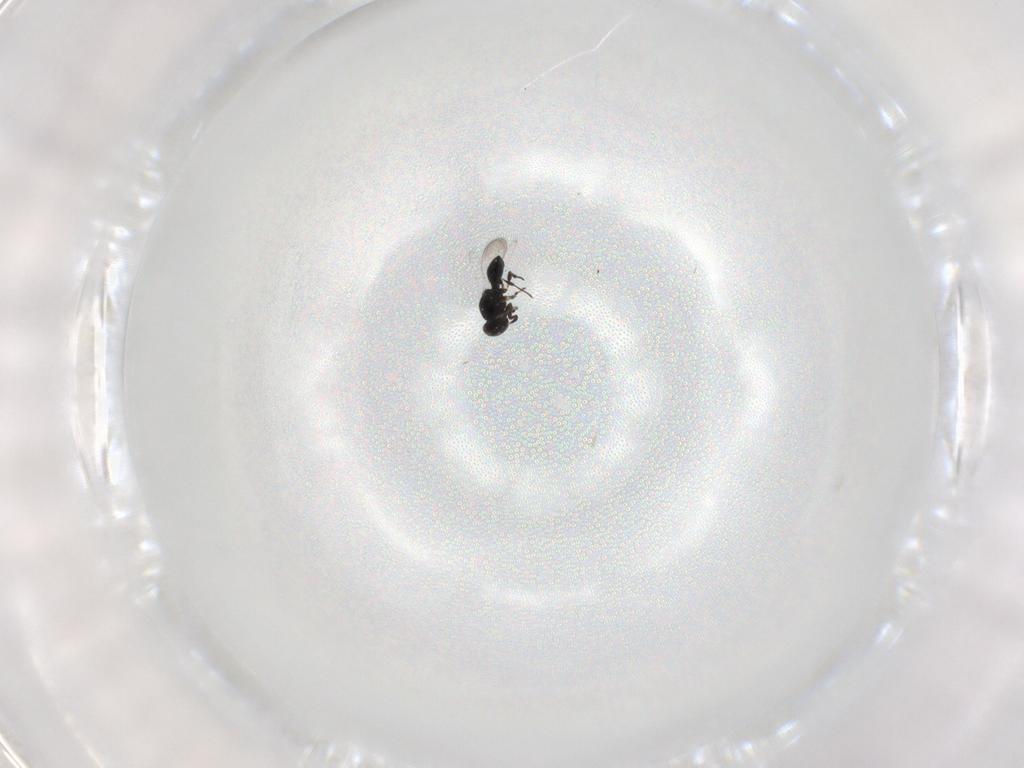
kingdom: Animalia
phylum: Arthropoda
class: Insecta
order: Hymenoptera
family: Platygastridae
